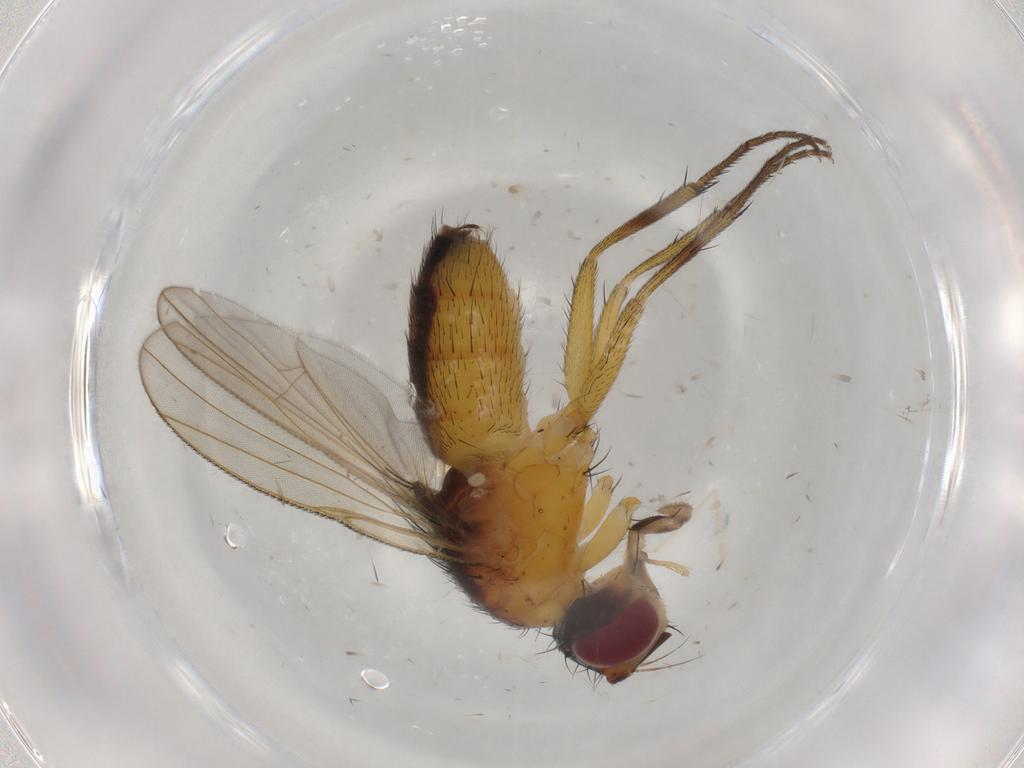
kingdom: Animalia
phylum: Arthropoda
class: Insecta
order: Diptera
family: Muscidae
